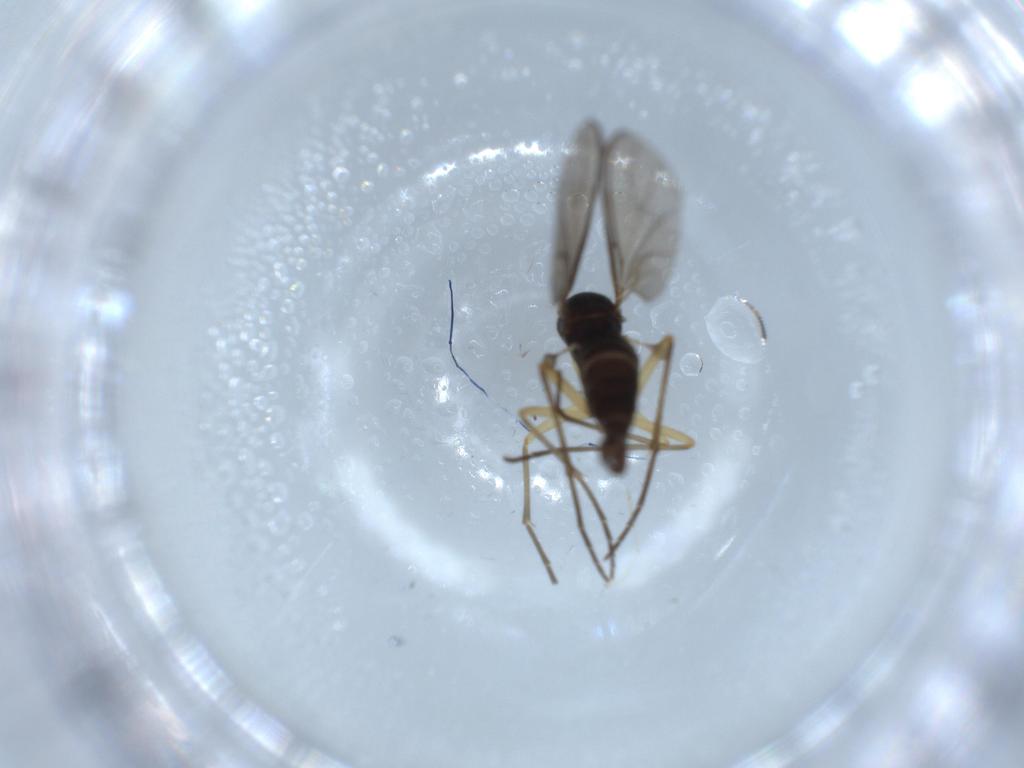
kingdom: Animalia
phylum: Arthropoda
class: Insecta
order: Diptera
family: Sciaridae
